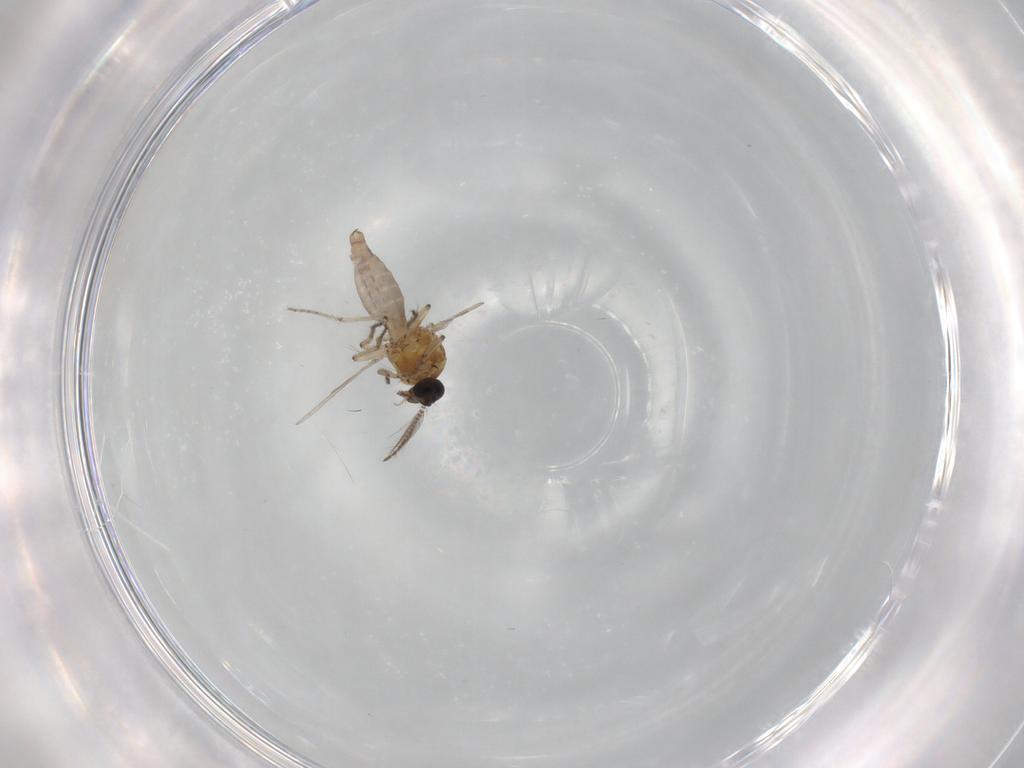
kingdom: Animalia
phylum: Arthropoda
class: Insecta
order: Diptera
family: Ceratopogonidae
